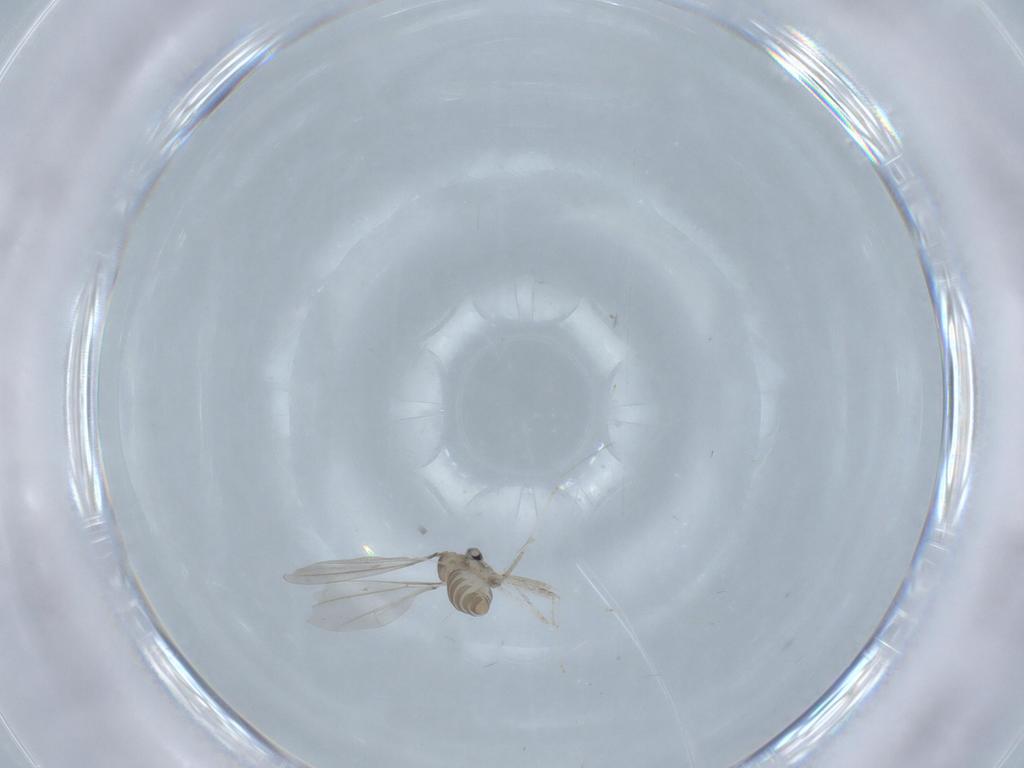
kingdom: Animalia
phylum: Arthropoda
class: Insecta
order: Diptera
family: Cecidomyiidae
